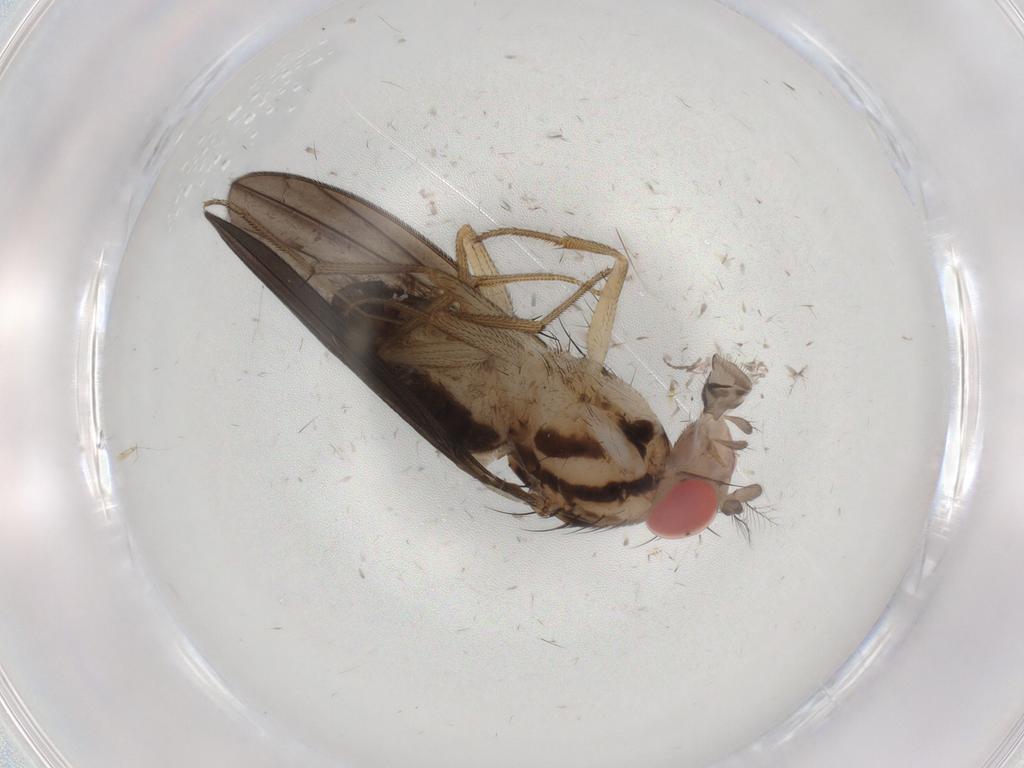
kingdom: Animalia
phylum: Arthropoda
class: Insecta
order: Diptera
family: Drosophilidae
